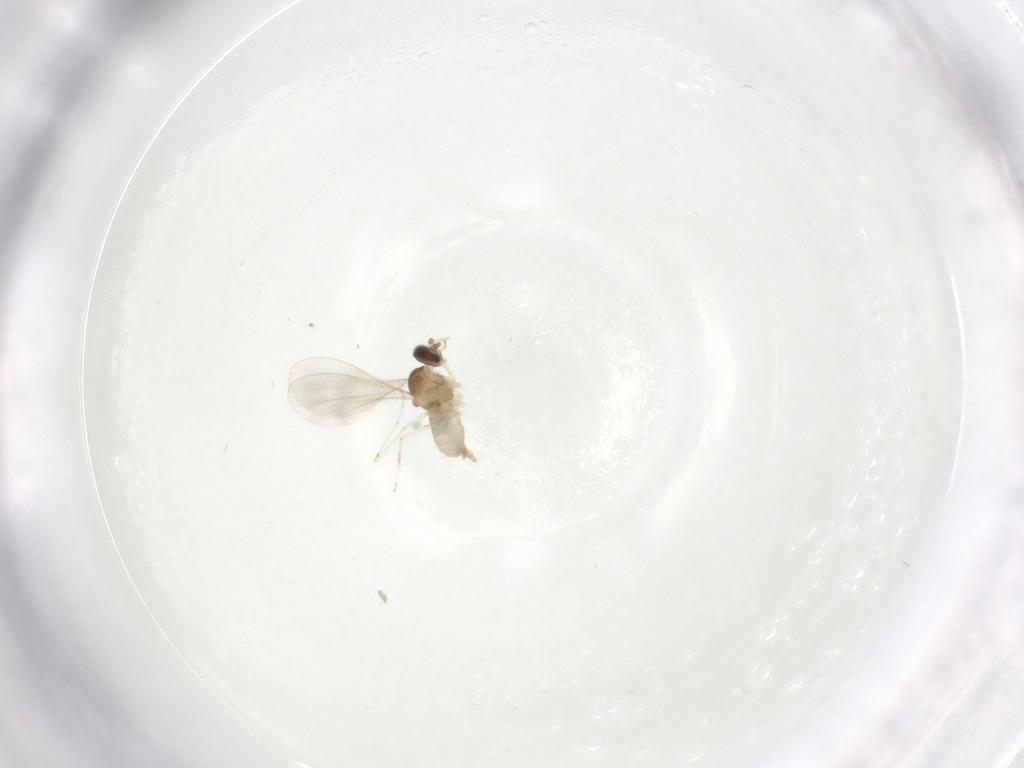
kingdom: Animalia
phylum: Arthropoda
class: Insecta
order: Diptera
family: Cecidomyiidae
